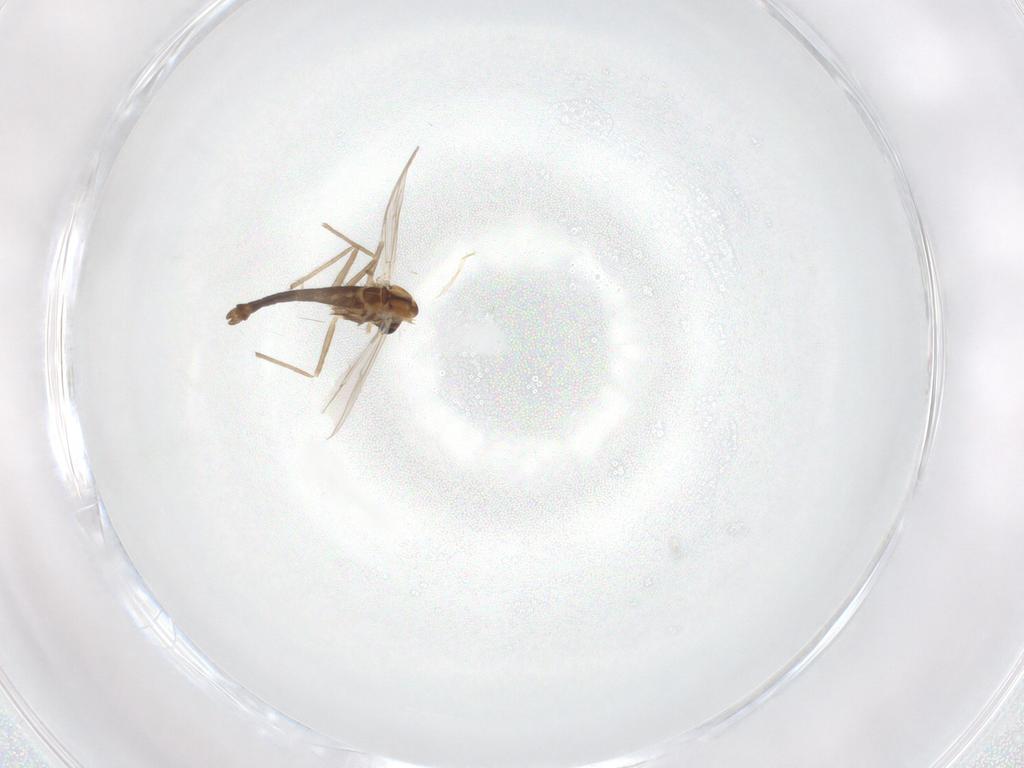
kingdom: Animalia
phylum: Arthropoda
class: Insecta
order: Diptera
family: Chironomidae
